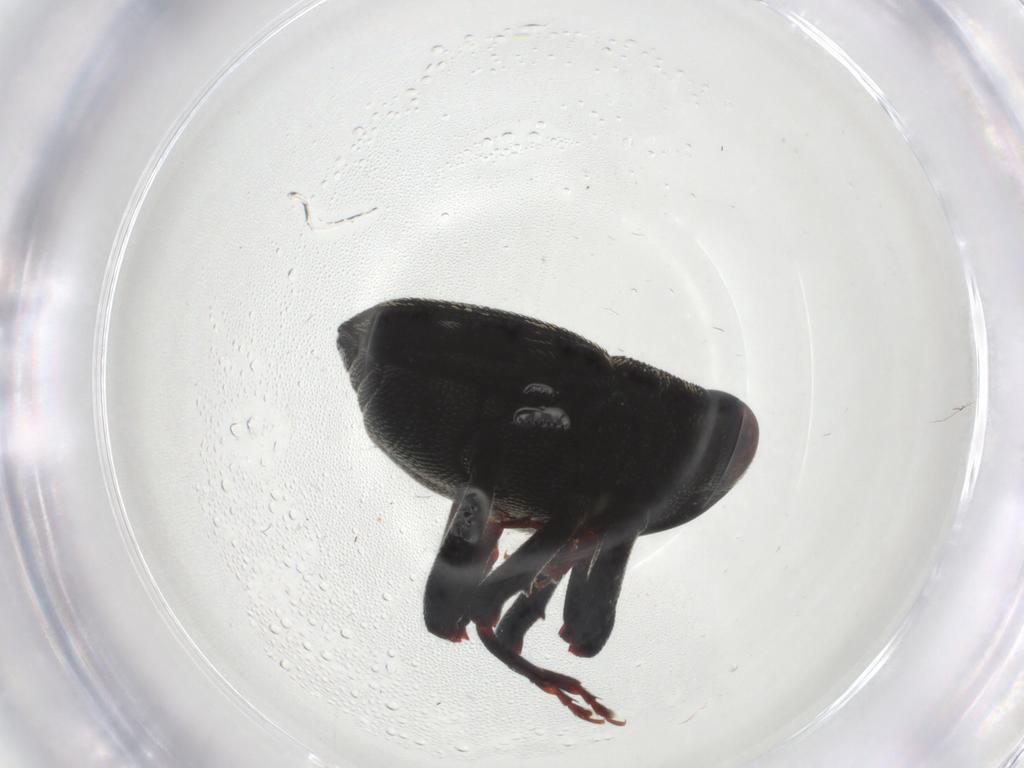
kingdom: Animalia
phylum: Arthropoda
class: Insecta
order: Coleoptera
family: Curculionidae
